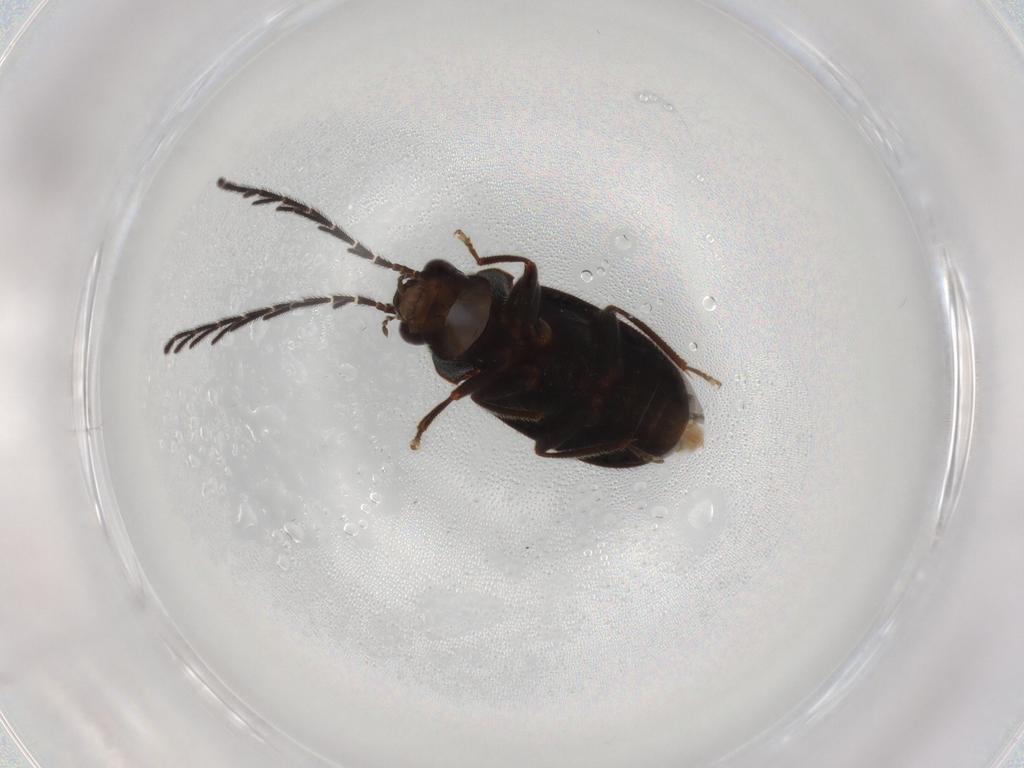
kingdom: Animalia
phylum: Arthropoda
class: Insecta
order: Coleoptera
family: Ptilodactylidae
